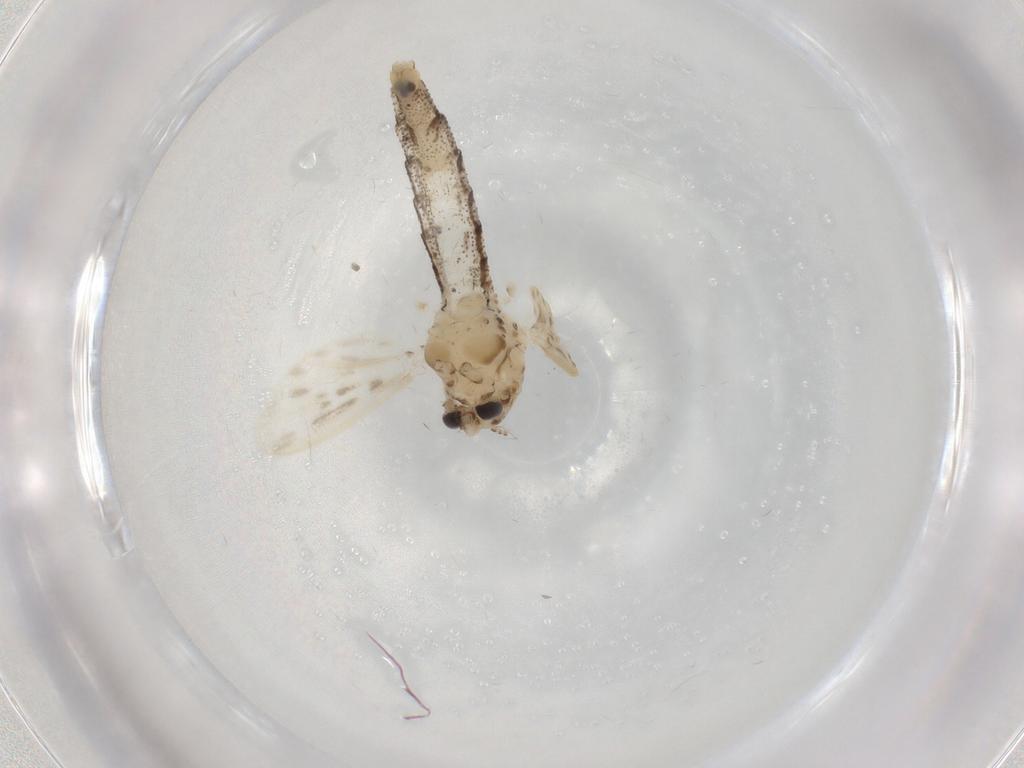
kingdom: Animalia
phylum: Arthropoda
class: Insecta
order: Diptera
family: Chaoboridae
